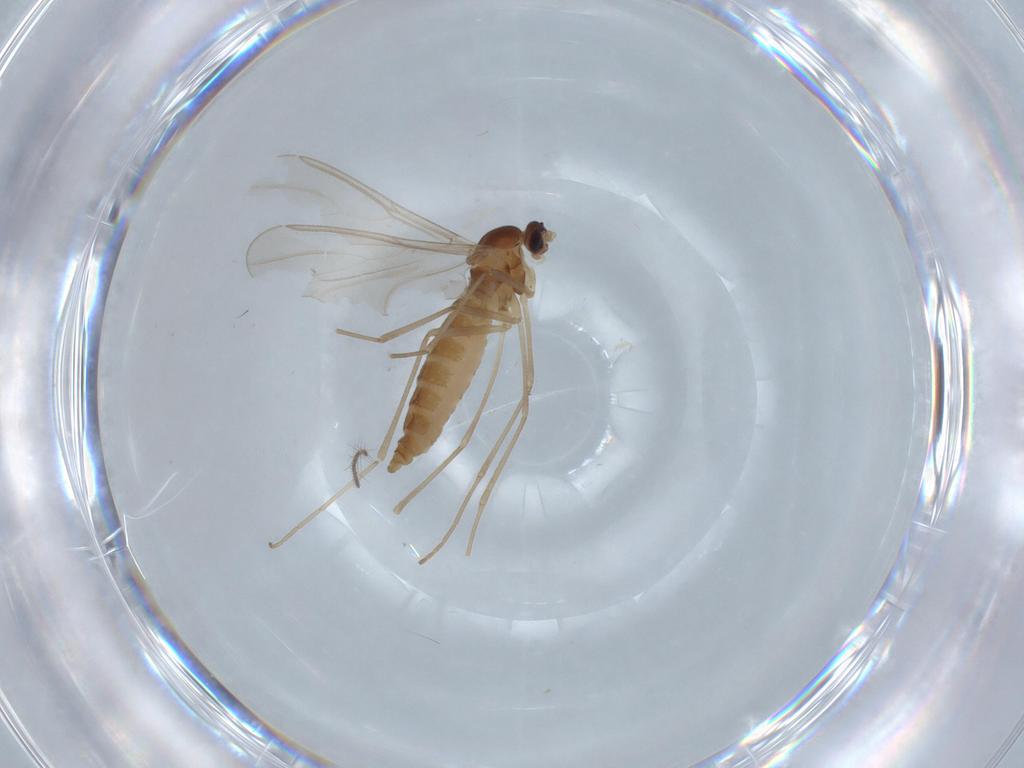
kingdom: Animalia
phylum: Arthropoda
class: Insecta
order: Diptera
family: Dolichopodidae
